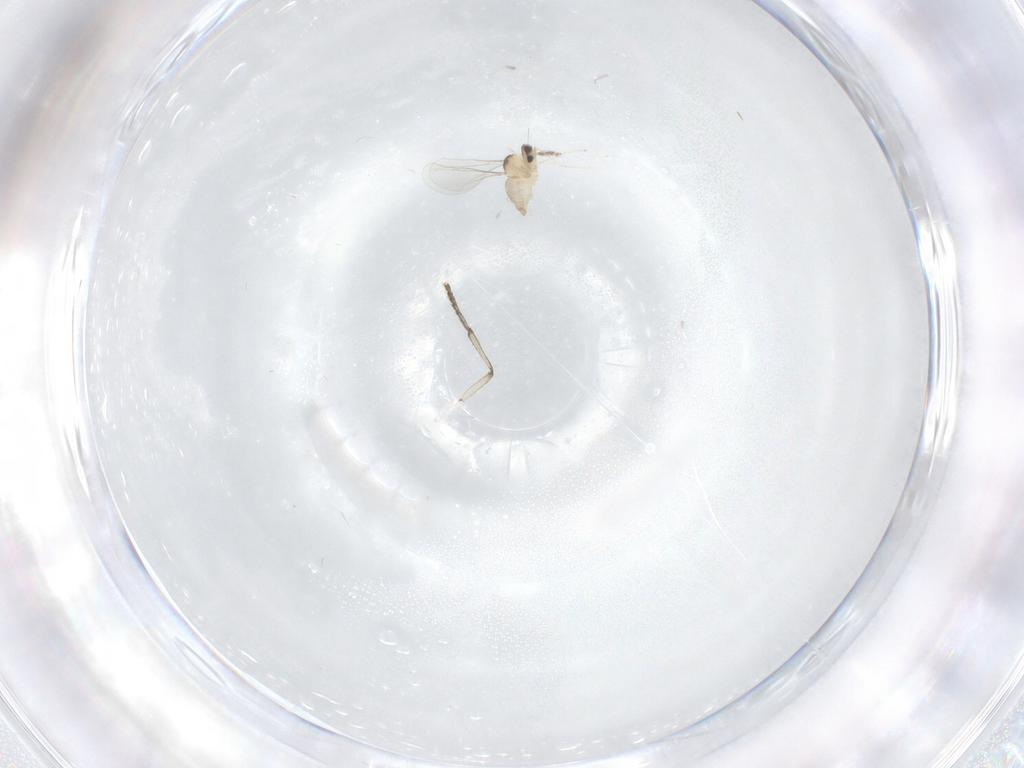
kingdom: Animalia
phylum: Arthropoda
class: Insecta
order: Diptera
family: Cecidomyiidae
